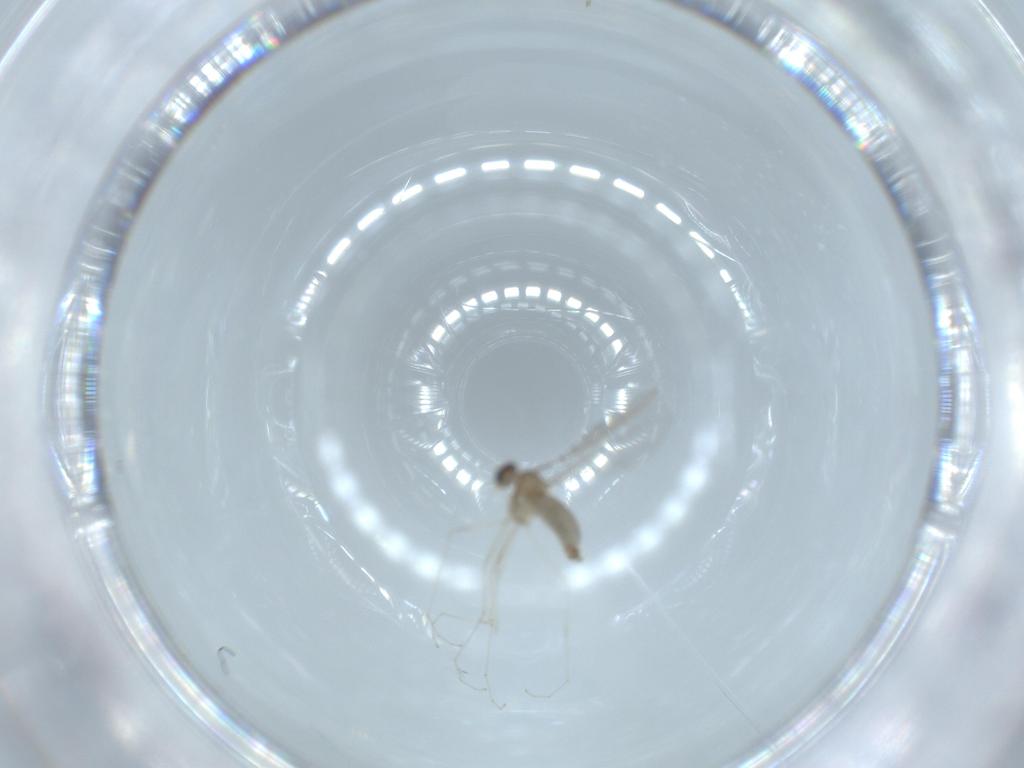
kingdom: Animalia
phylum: Arthropoda
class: Insecta
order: Diptera
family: Cecidomyiidae
